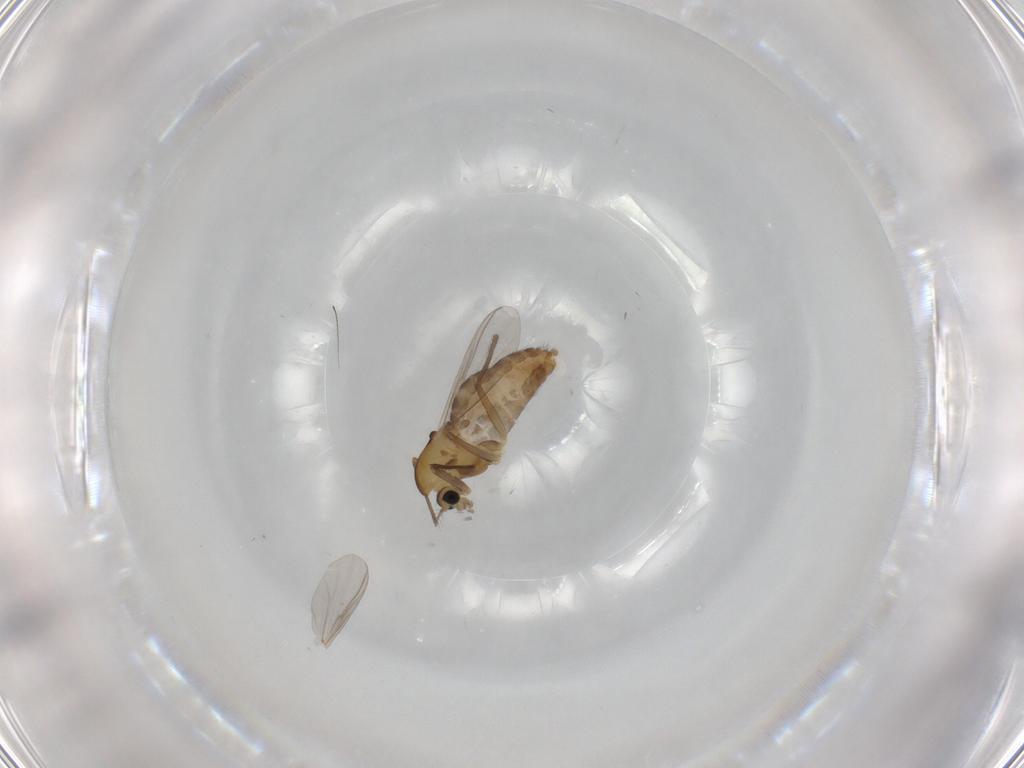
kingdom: Animalia
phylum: Arthropoda
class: Insecta
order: Diptera
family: Chironomidae
